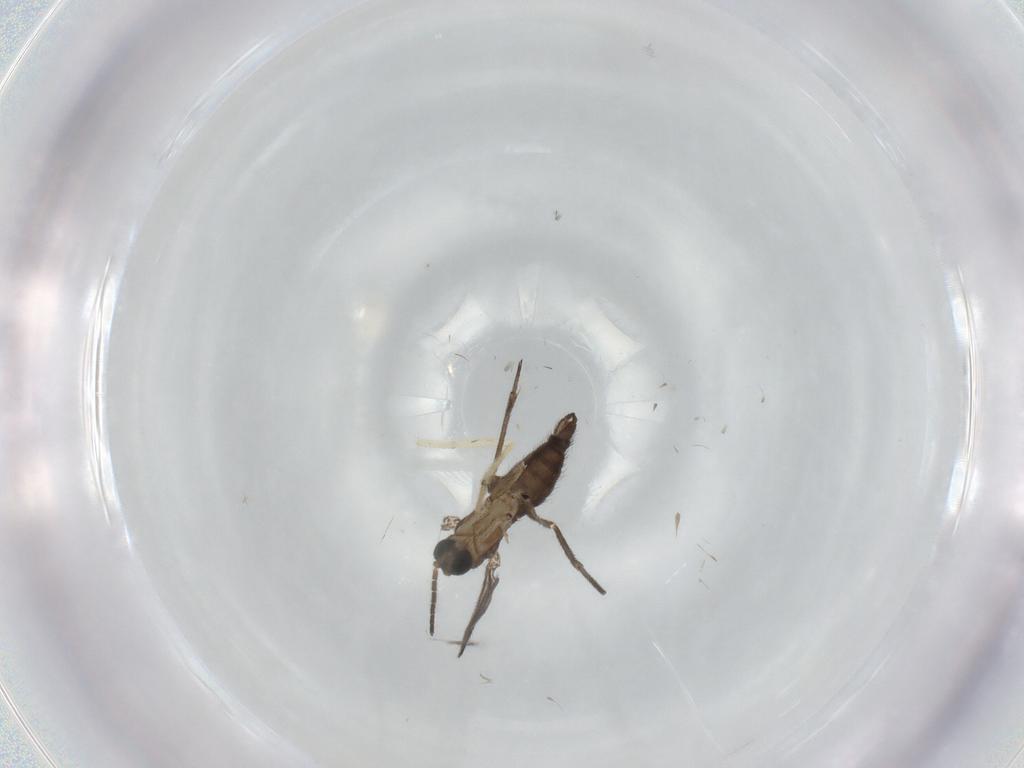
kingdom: Animalia
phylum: Arthropoda
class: Insecta
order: Diptera
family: Sciaridae
